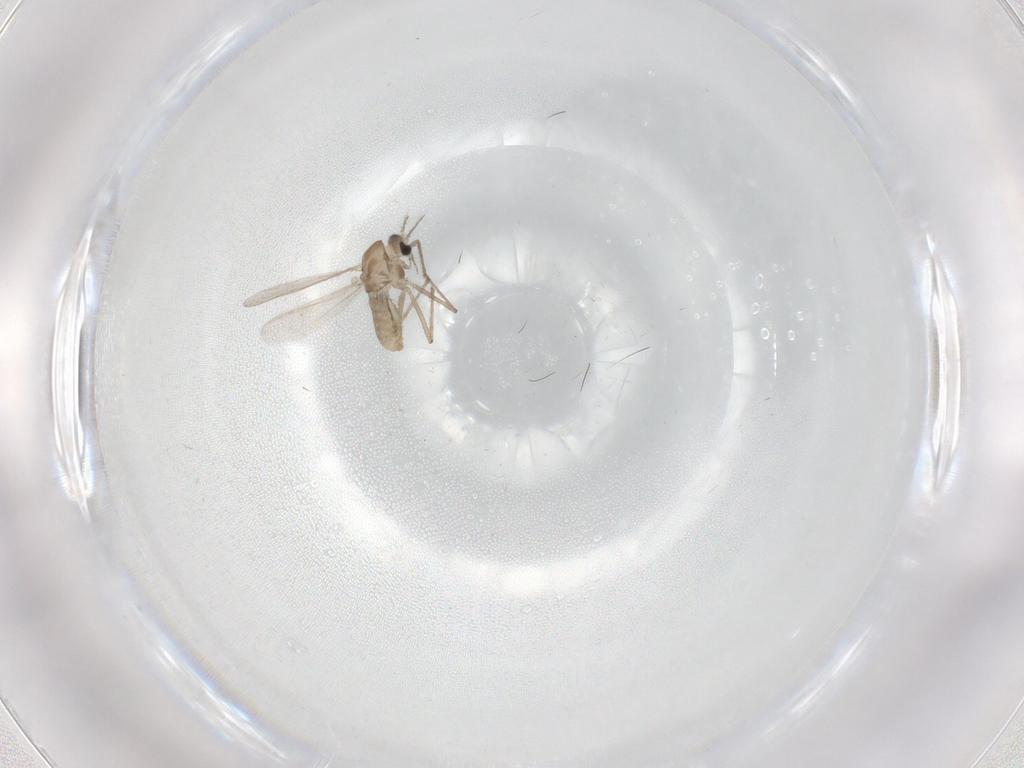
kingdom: Animalia
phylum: Arthropoda
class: Insecta
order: Diptera
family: Chironomidae
